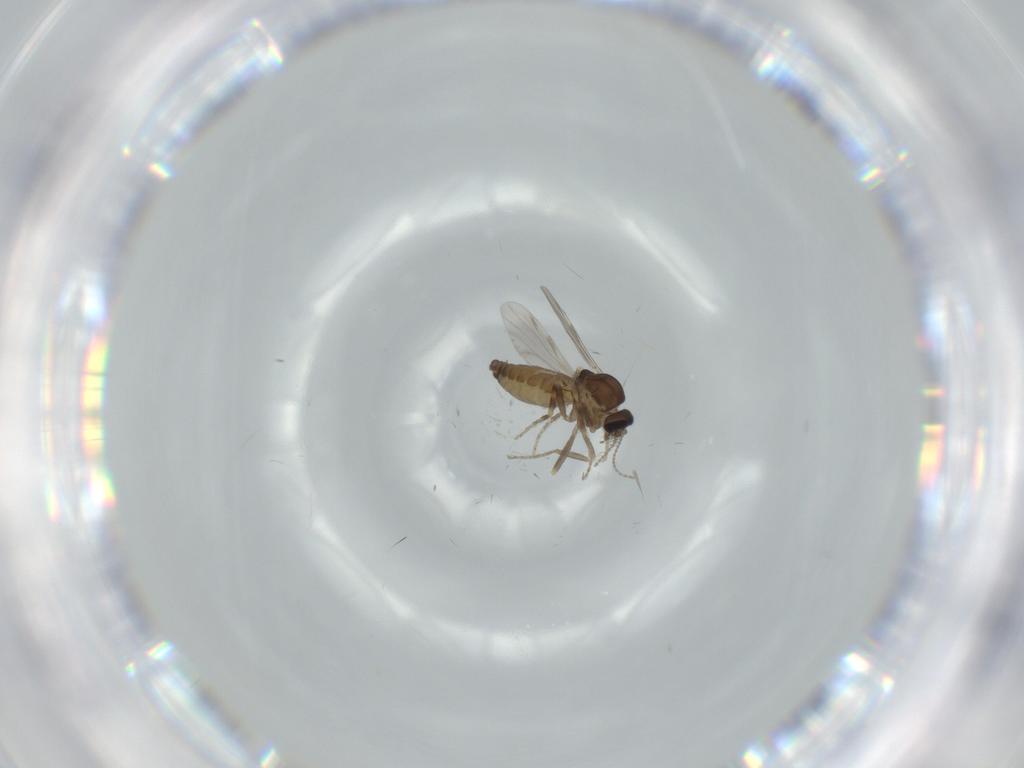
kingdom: Animalia
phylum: Arthropoda
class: Insecta
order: Diptera
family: Ceratopogonidae
